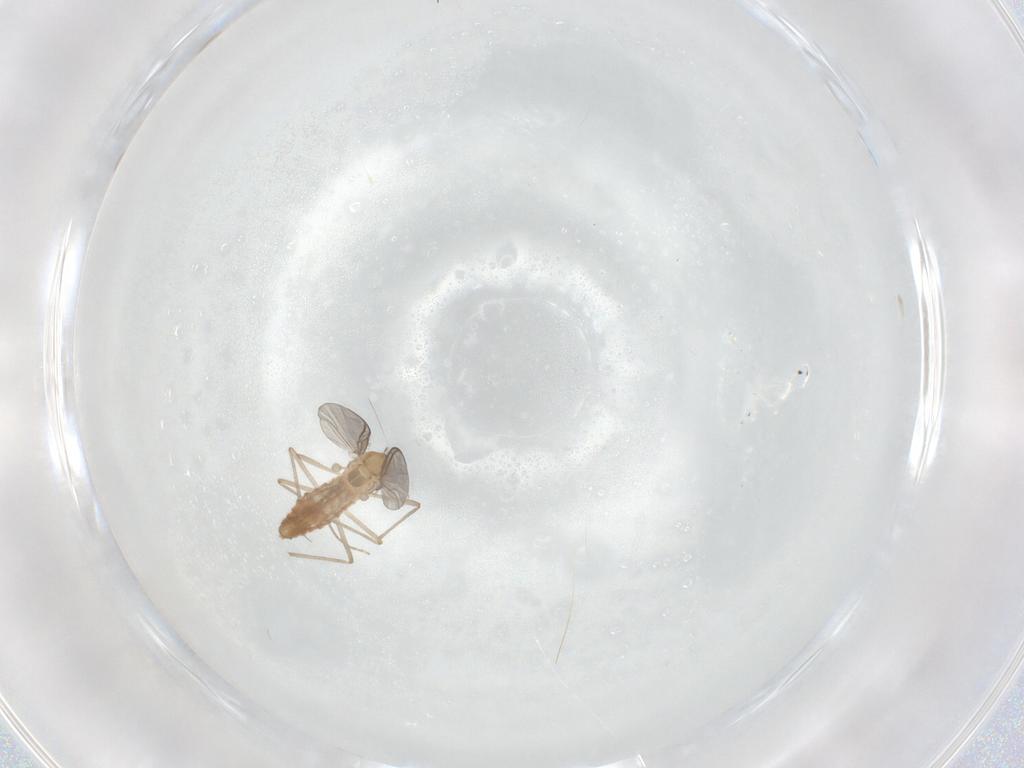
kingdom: Animalia
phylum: Arthropoda
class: Insecta
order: Diptera
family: Chironomidae
